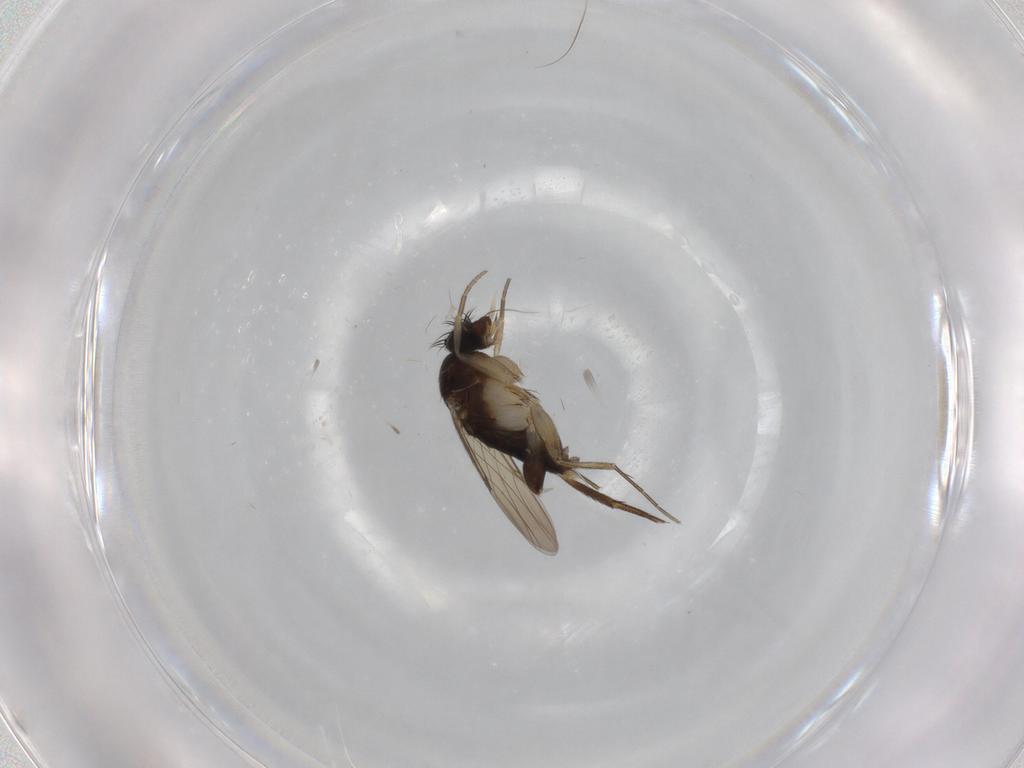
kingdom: Animalia
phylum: Arthropoda
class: Insecta
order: Diptera
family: Phoridae
